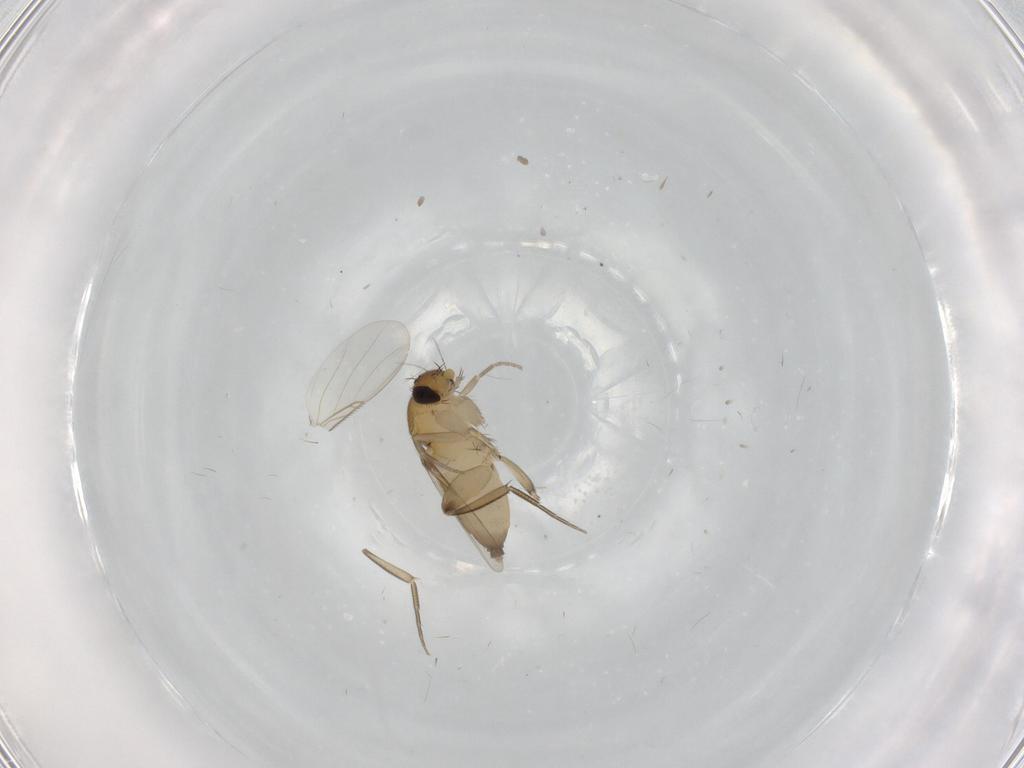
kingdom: Animalia
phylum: Arthropoda
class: Insecta
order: Diptera
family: Phoridae
